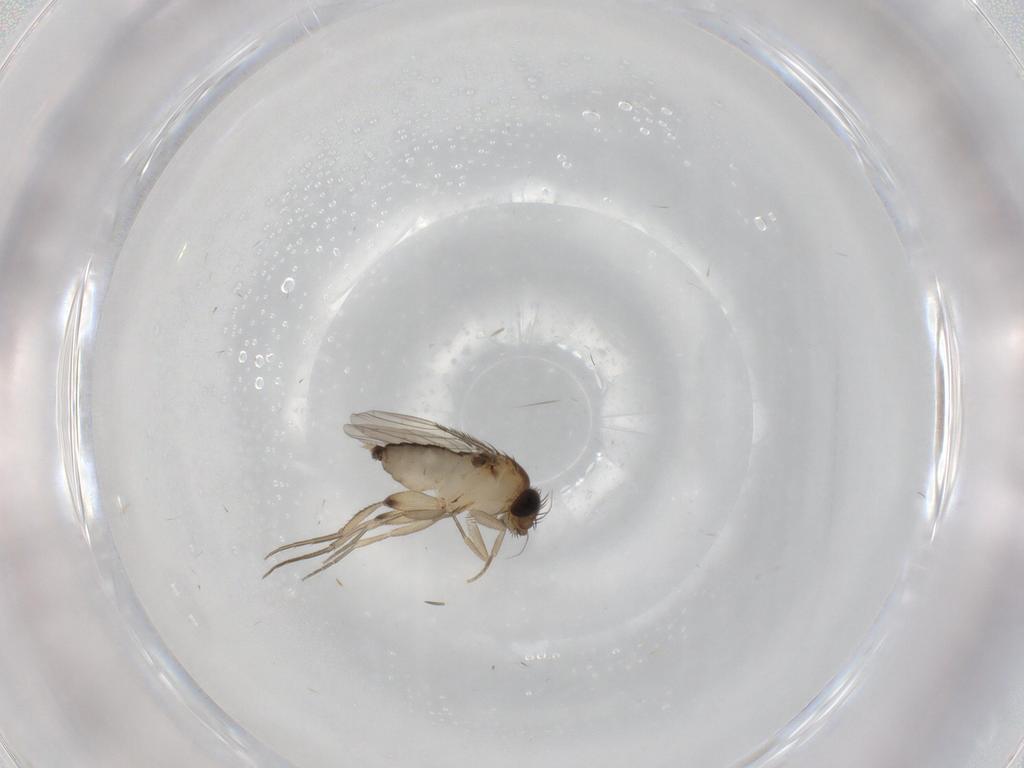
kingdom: Animalia
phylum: Arthropoda
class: Insecta
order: Diptera
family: Phoridae
